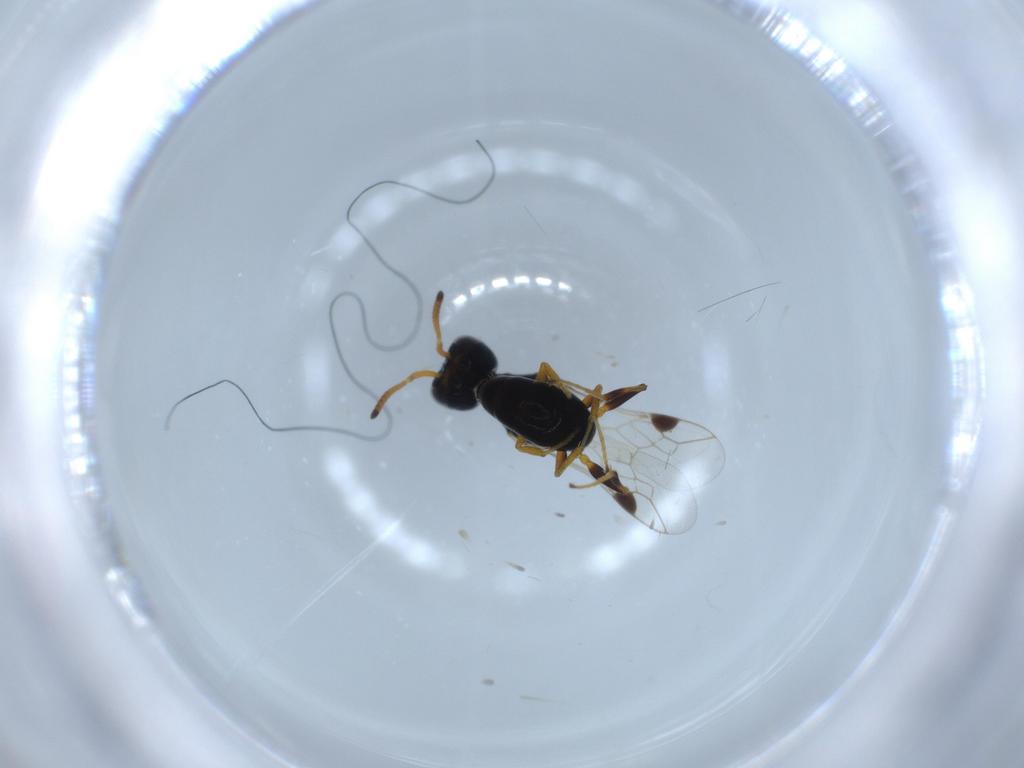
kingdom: Animalia
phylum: Arthropoda
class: Insecta
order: Hymenoptera
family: Pemphredonidae
